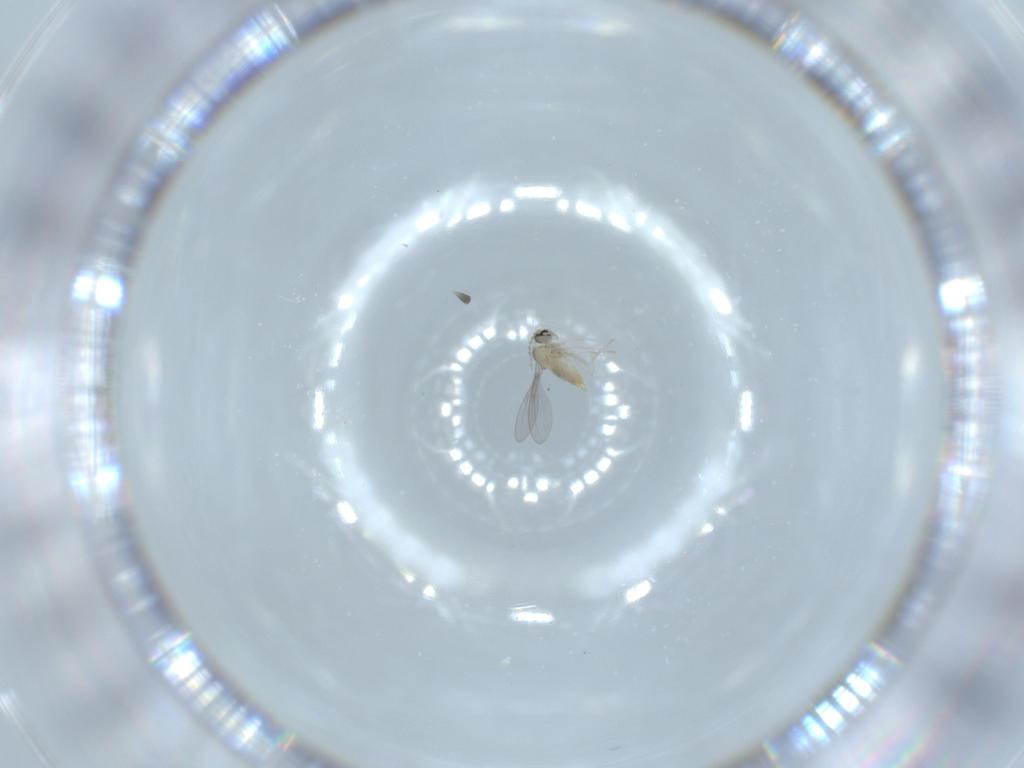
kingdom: Animalia
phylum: Arthropoda
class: Insecta
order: Diptera
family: Cecidomyiidae
